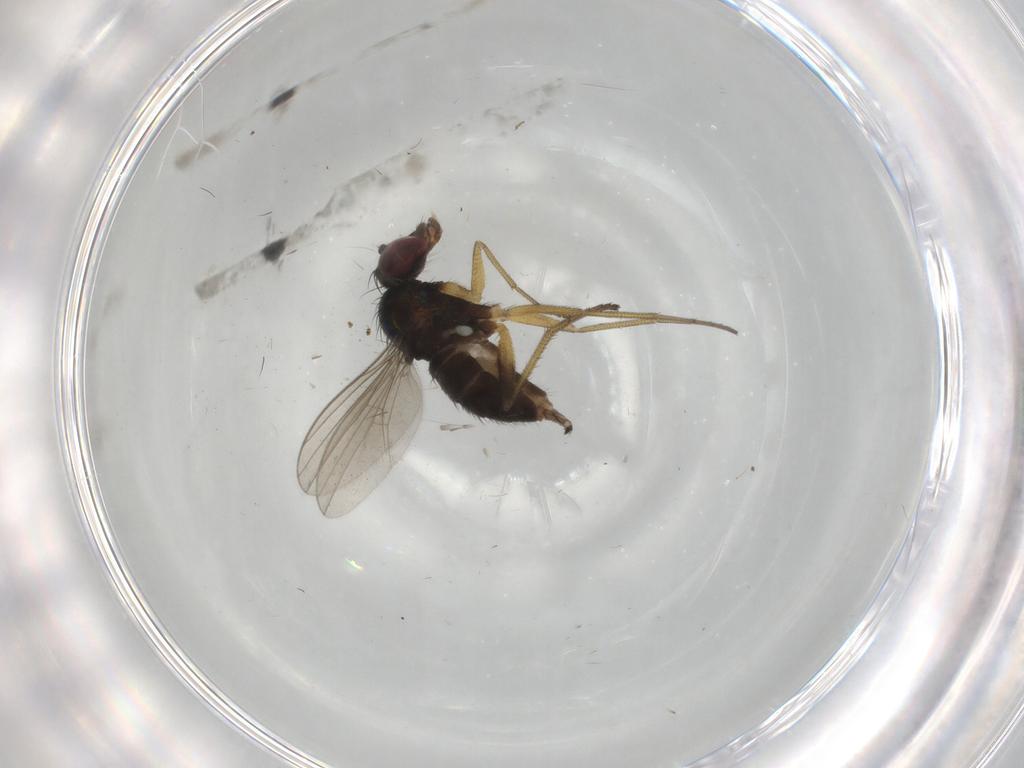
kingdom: Animalia
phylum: Arthropoda
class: Insecta
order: Diptera
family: Dolichopodidae
